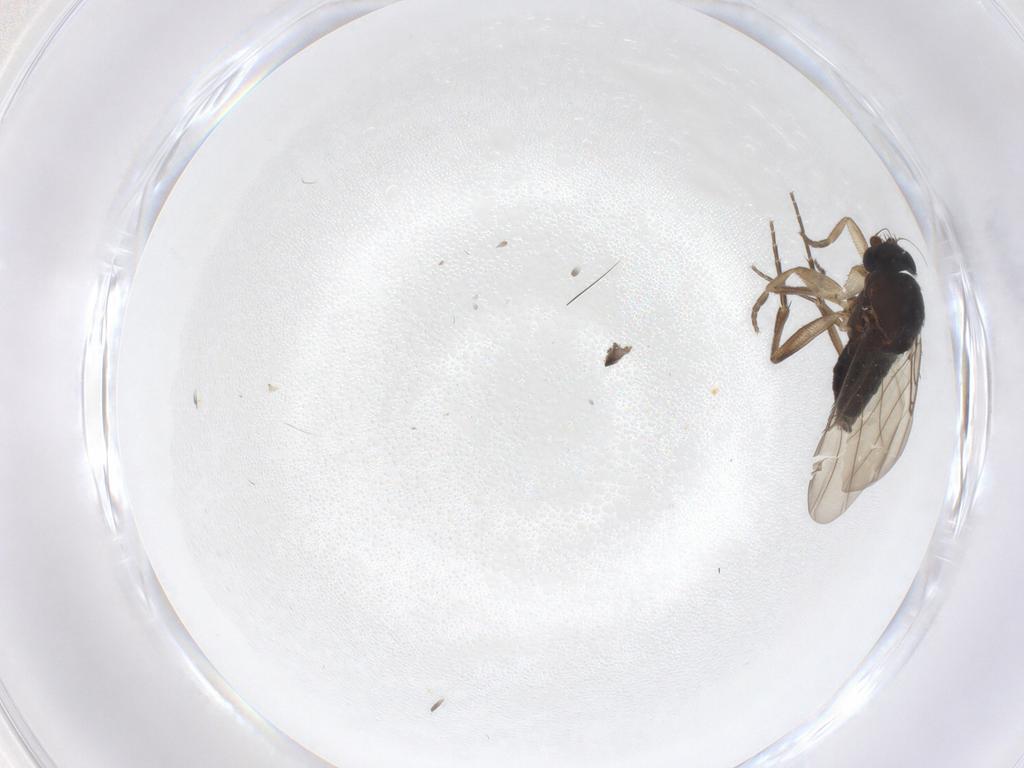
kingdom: Animalia
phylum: Arthropoda
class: Insecta
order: Diptera
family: Phoridae
